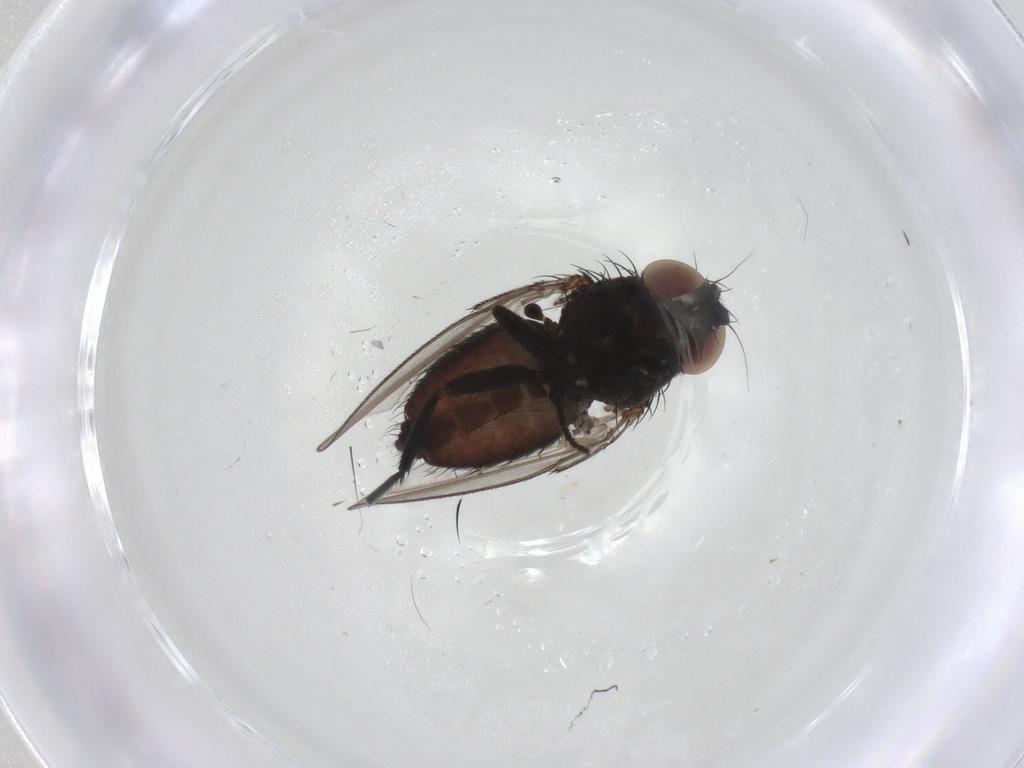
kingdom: Animalia
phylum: Arthropoda
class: Insecta
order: Diptera
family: Milichiidae
